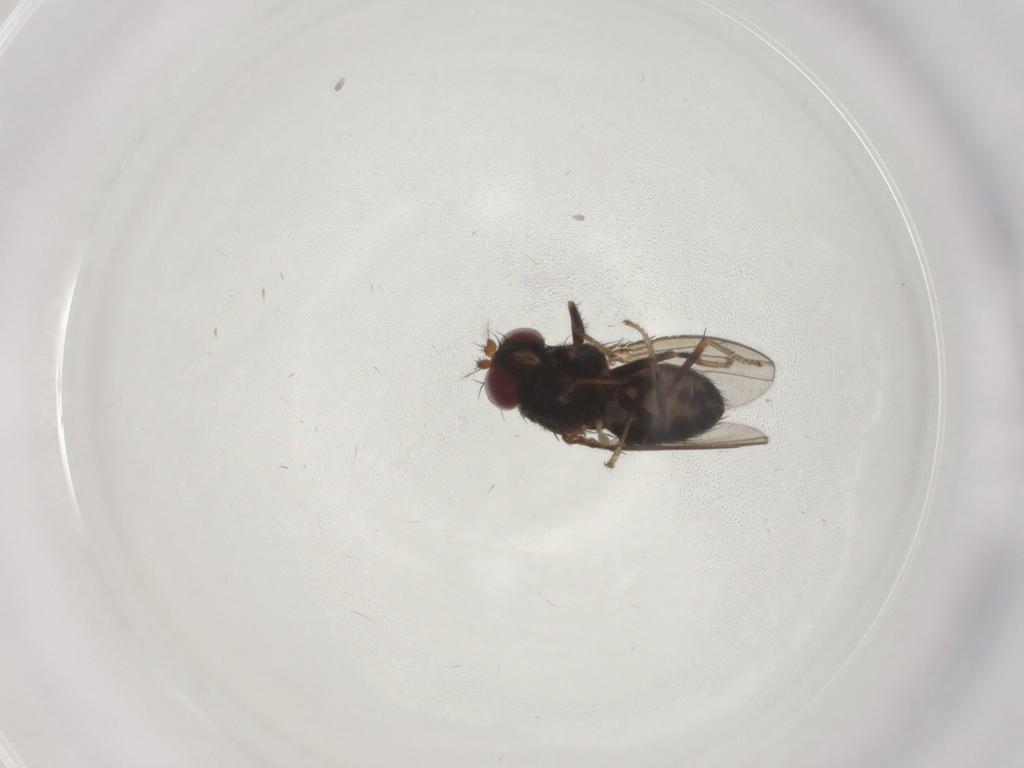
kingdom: Animalia
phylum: Arthropoda
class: Insecta
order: Diptera
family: Ephydridae
